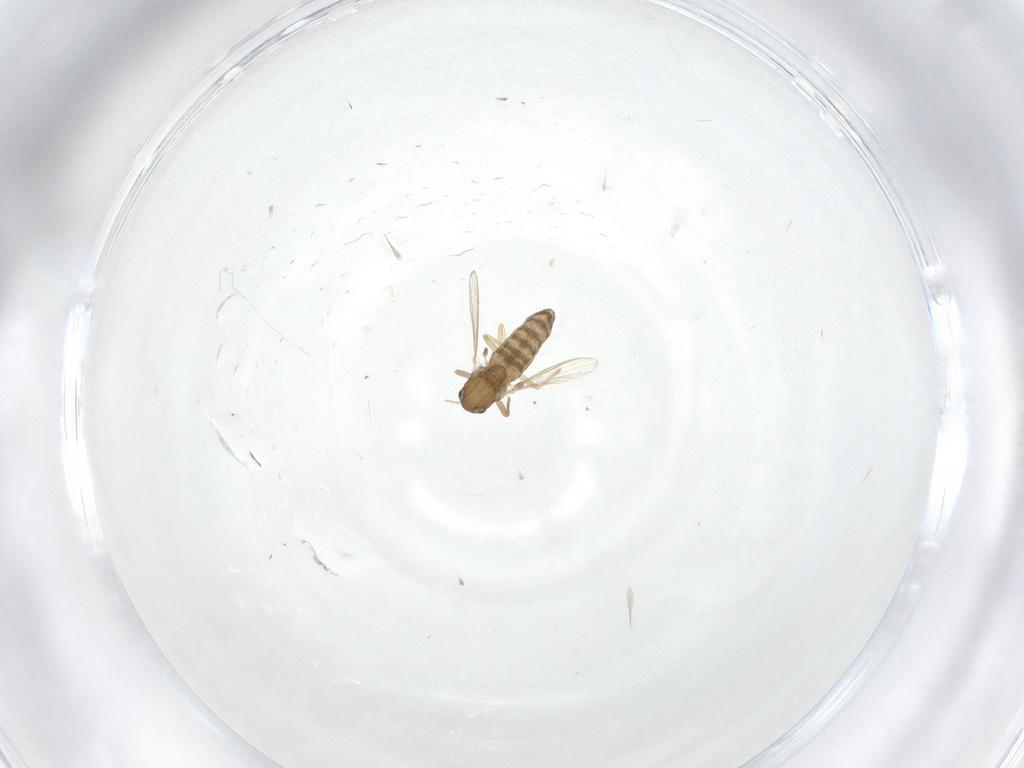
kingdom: Animalia
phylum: Arthropoda
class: Insecta
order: Diptera
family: Chironomidae
